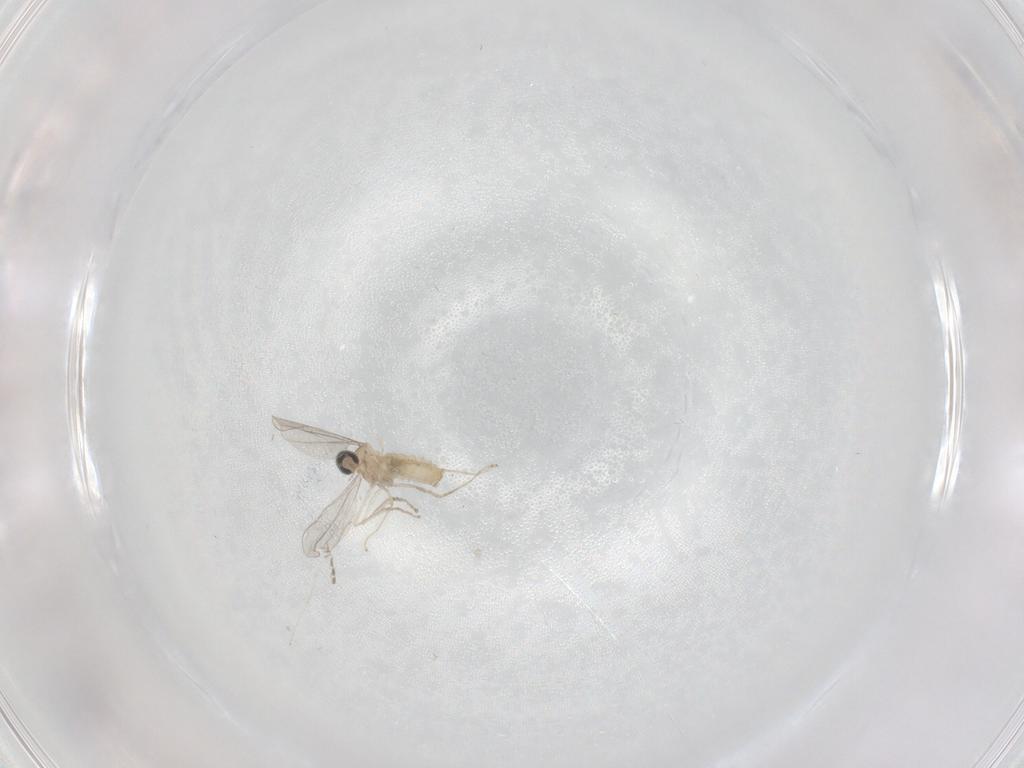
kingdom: Animalia
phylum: Arthropoda
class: Insecta
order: Diptera
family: Cecidomyiidae
